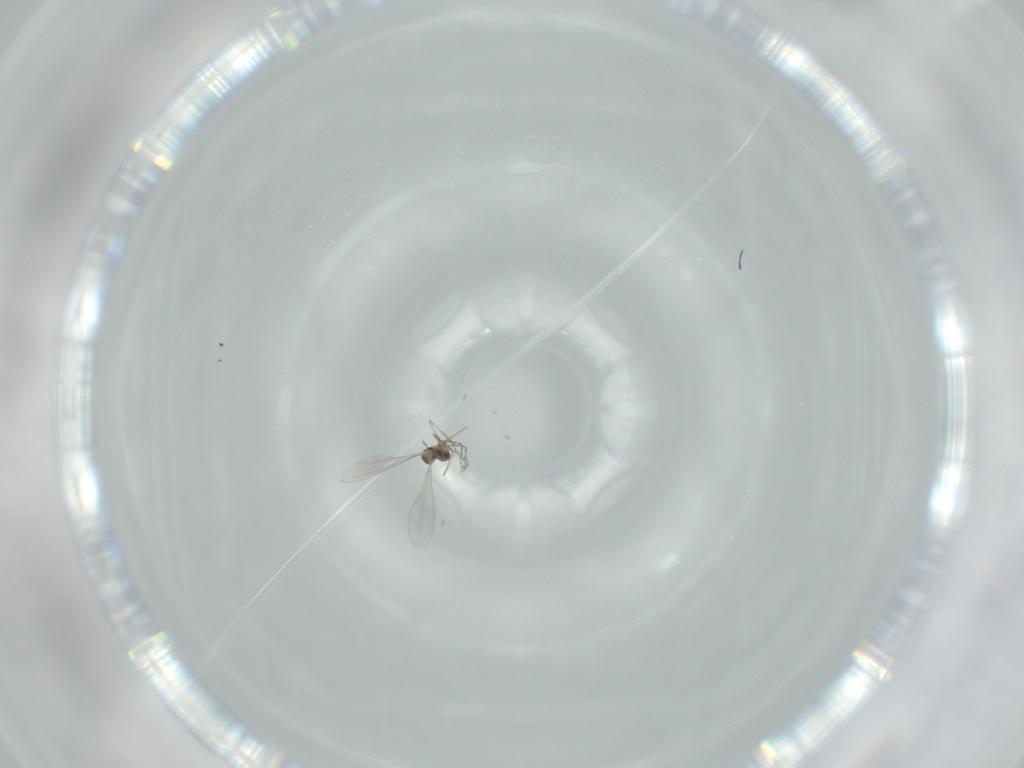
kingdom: Animalia
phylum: Arthropoda
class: Insecta
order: Diptera
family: Cecidomyiidae
